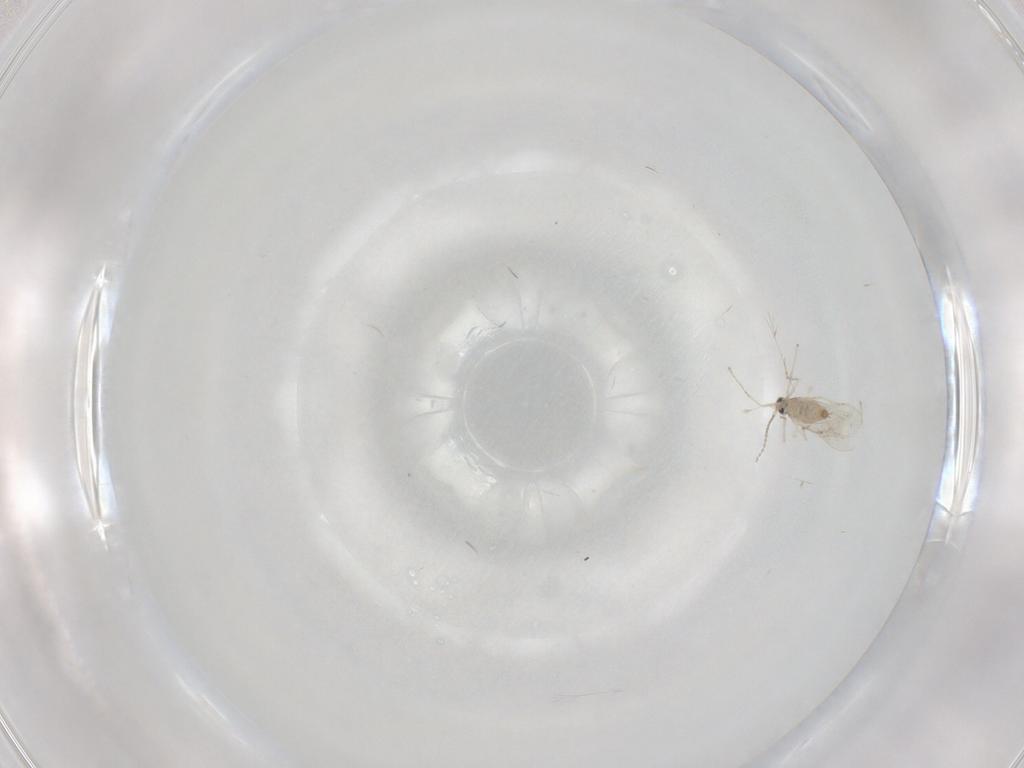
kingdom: Animalia
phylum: Arthropoda
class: Insecta
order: Diptera
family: Cecidomyiidae
